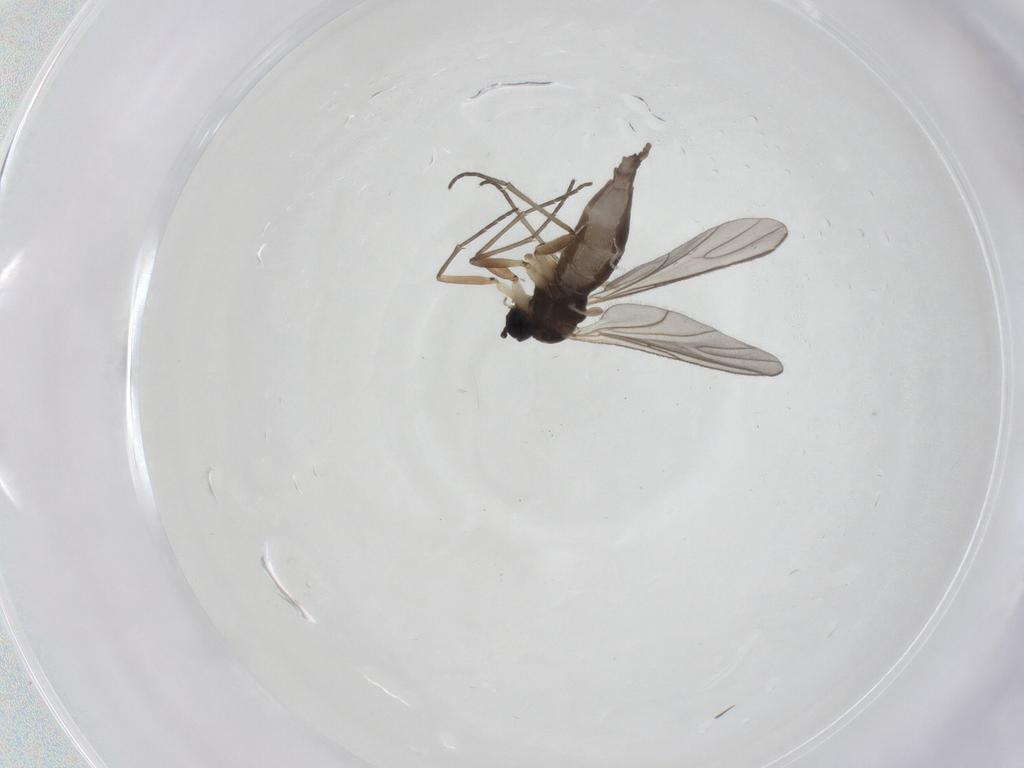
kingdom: Animalia
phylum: Arthropoda
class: Insecta
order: Diptera
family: Sciaridae
